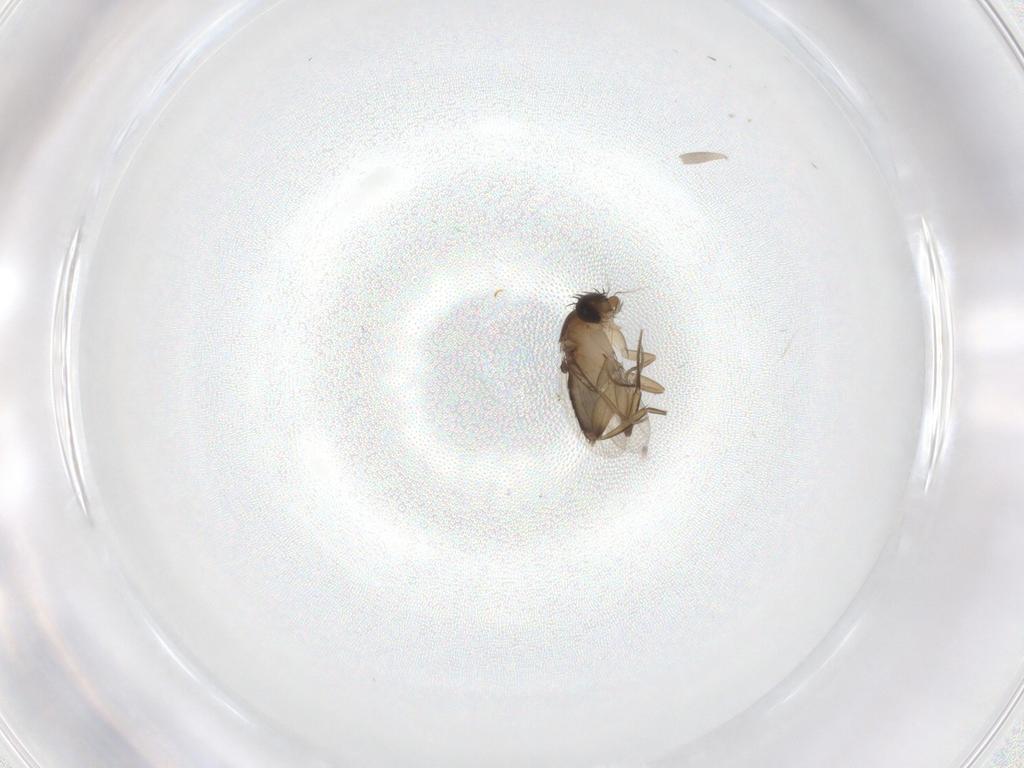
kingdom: Animalia
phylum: Arthropoda
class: Insecta
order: Diptera
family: Phoridae
